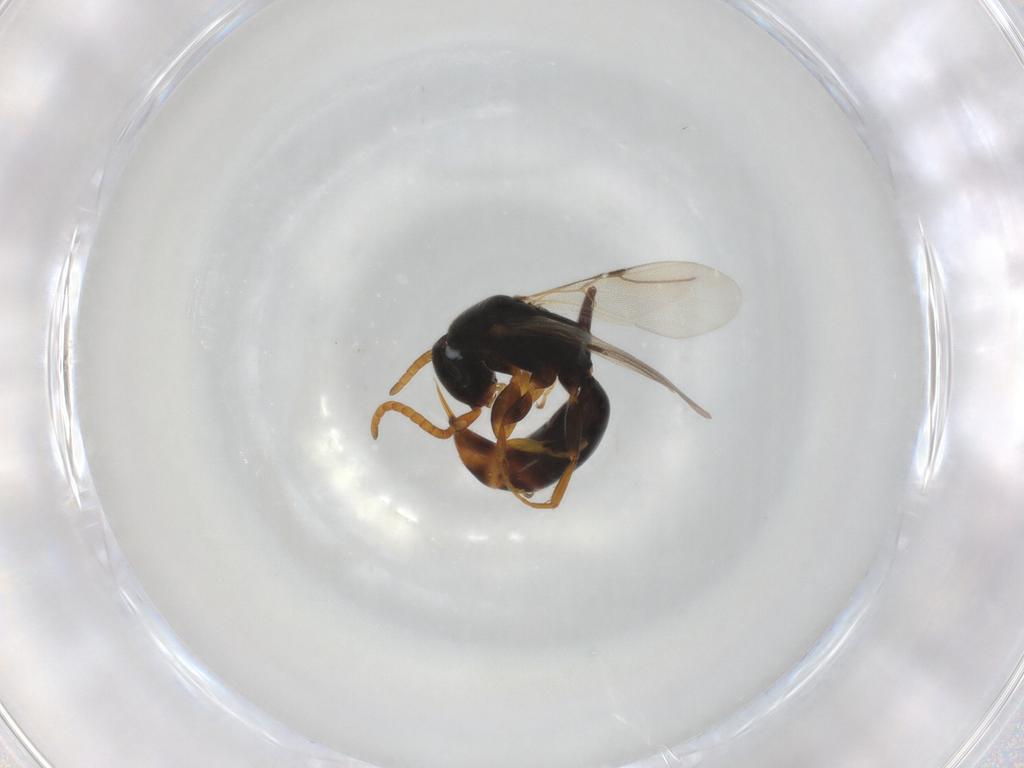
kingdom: Animalia
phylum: Arthropoda
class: Insecta
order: Hymenoptera
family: Bethylidae
